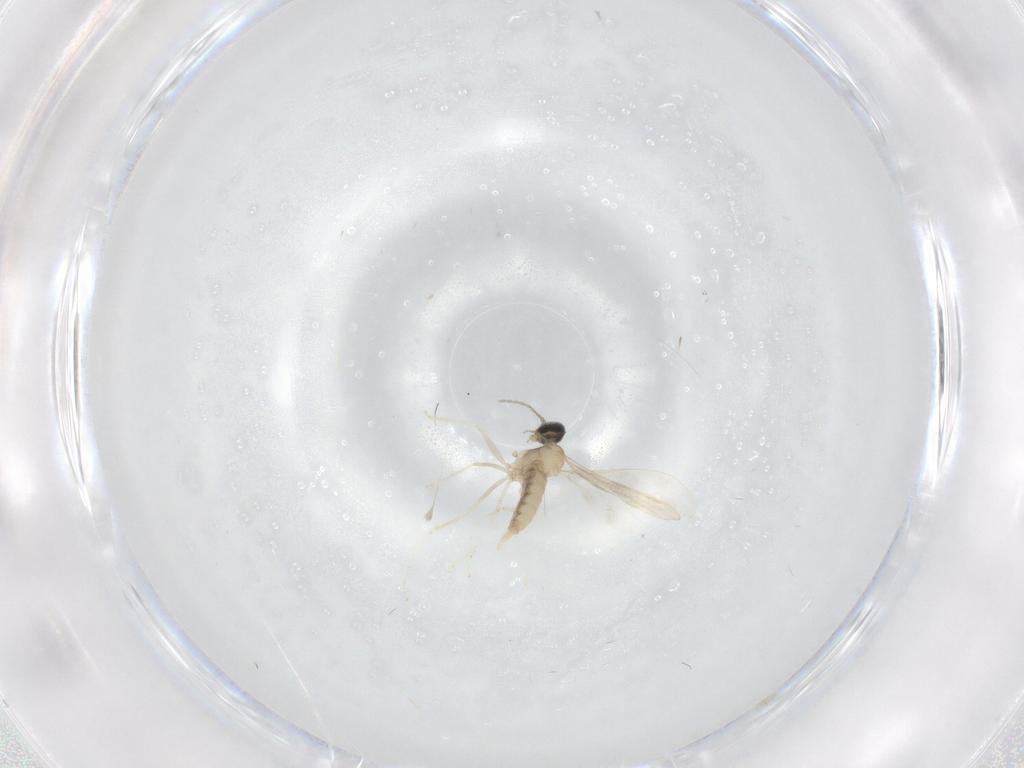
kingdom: Animalia
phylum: Arthropoda
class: Insecta
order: Diptera
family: Cecidomyiidae
